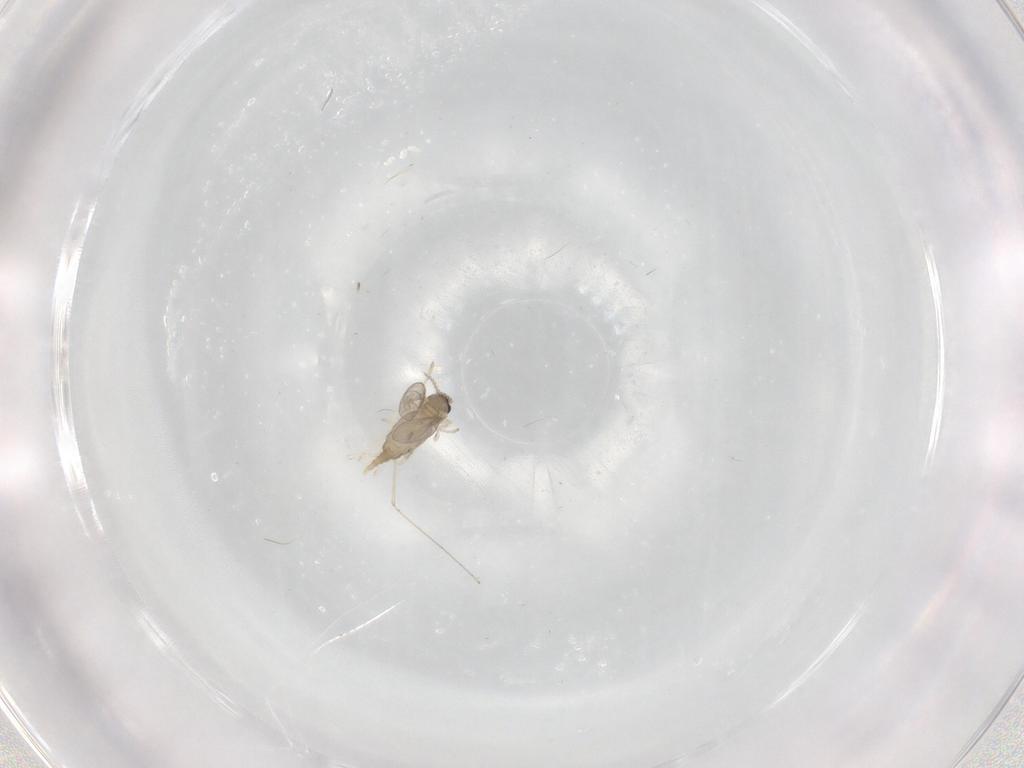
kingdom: Animalia
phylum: Arthropoda
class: Insecta
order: Diptera
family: Cecidomyiidae
